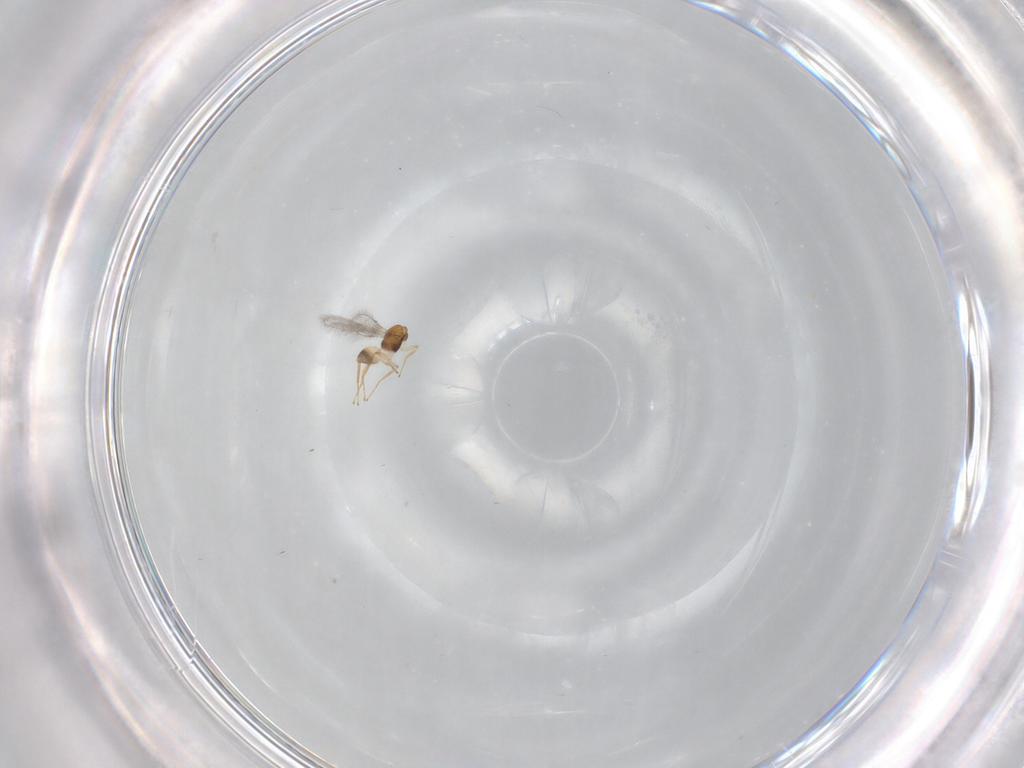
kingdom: Animalia
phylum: Arthropoda
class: Insecta
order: Hymenoptera
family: Mymaridae
